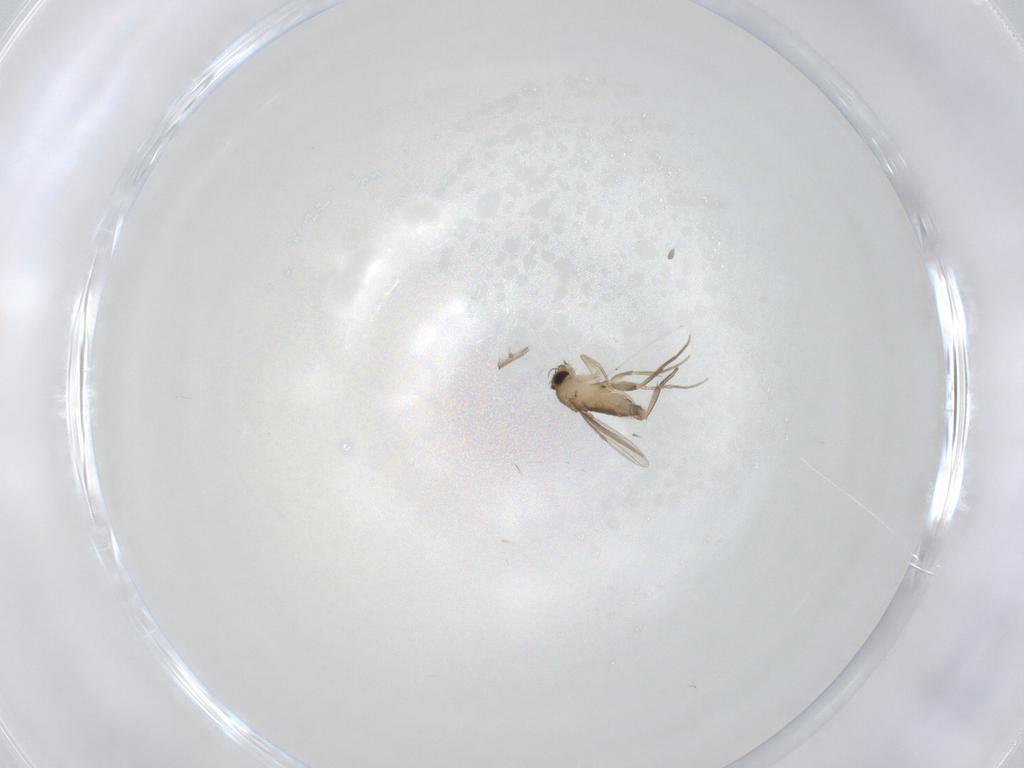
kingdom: Animalia
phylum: Arthropoda
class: Insecta
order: Diptera
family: Phoridae
